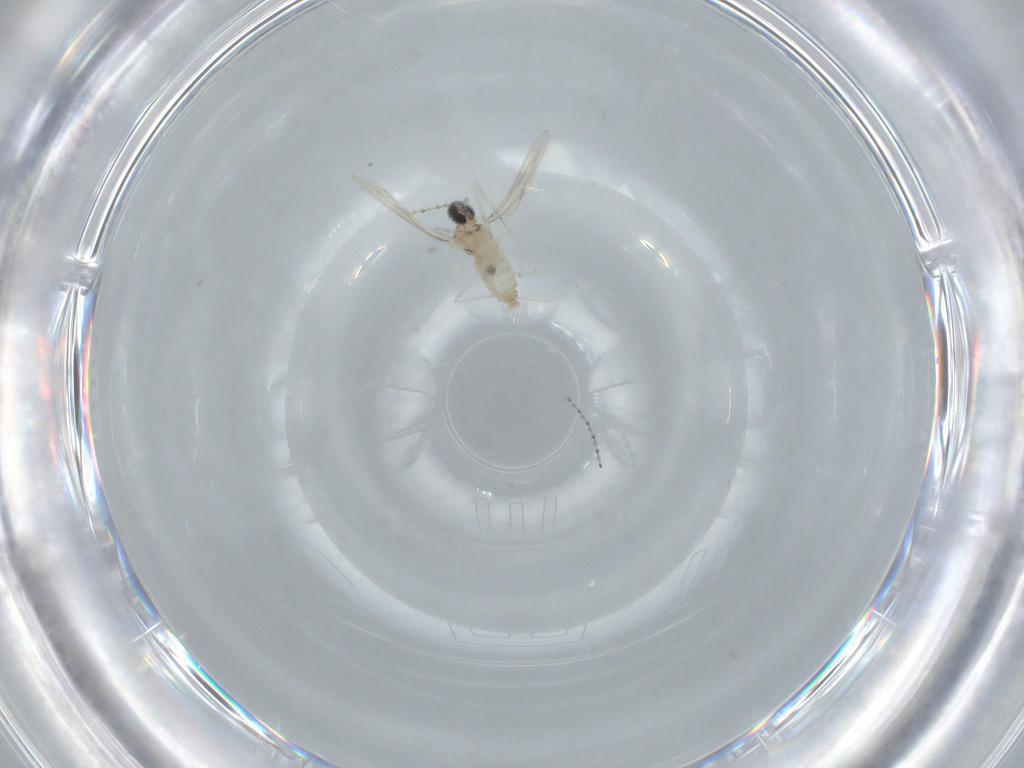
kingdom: Animalia
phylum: Arthropoda
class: Insecta
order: Diptera
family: Cecidomyiidae
